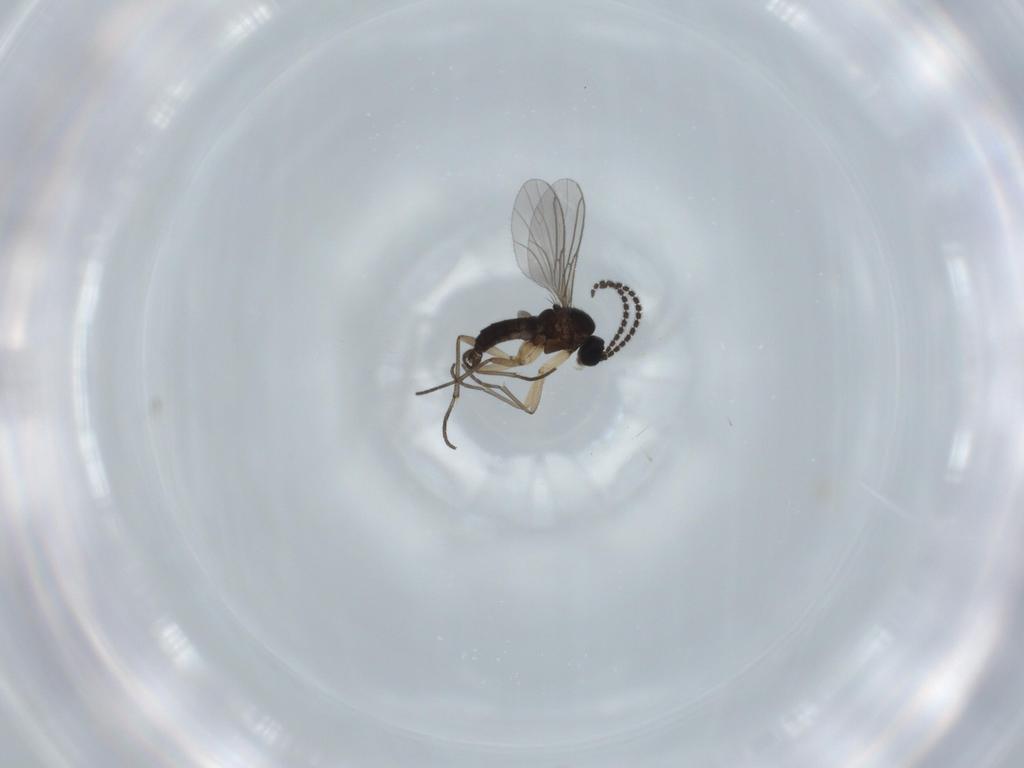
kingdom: Animalia
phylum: Arthropoda
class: Insecta
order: Diptera
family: Sciaridae
